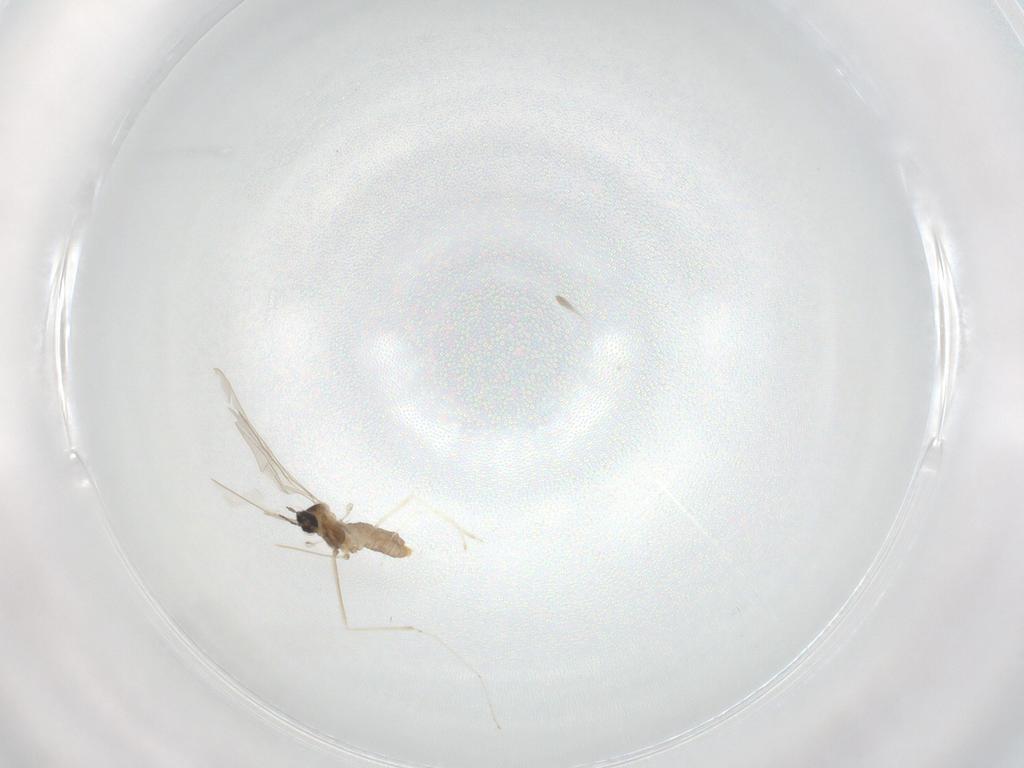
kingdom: Animalia
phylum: Arthropoda
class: Insecta
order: Diptera
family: Cecidomyiidae
